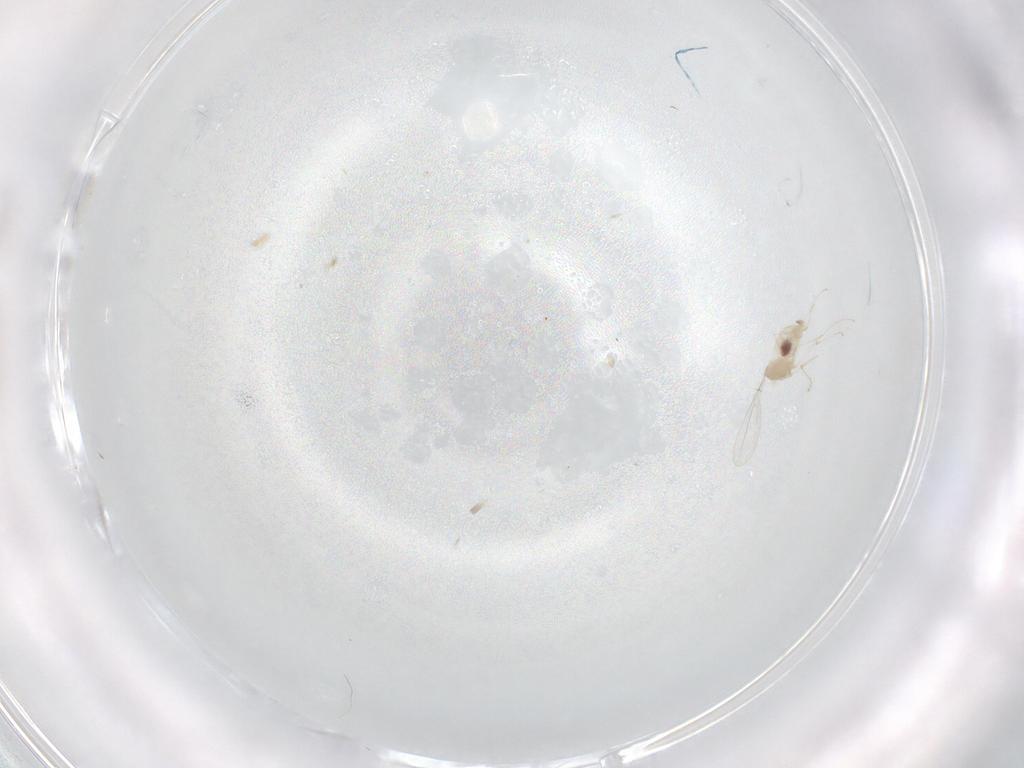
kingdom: Animalia
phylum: Arthropoda
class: Insecta
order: Diptera
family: Cecidomyiidae
